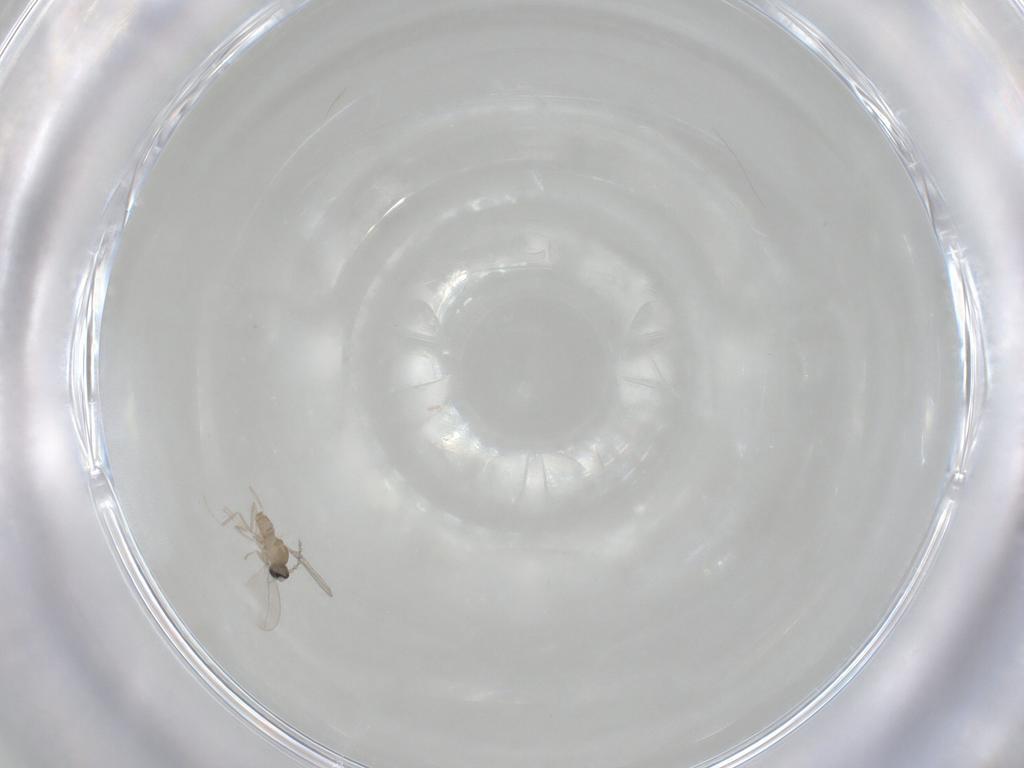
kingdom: Animalia
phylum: Arthropoda
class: Insecta
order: Diptera
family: Cecidomyiidae
